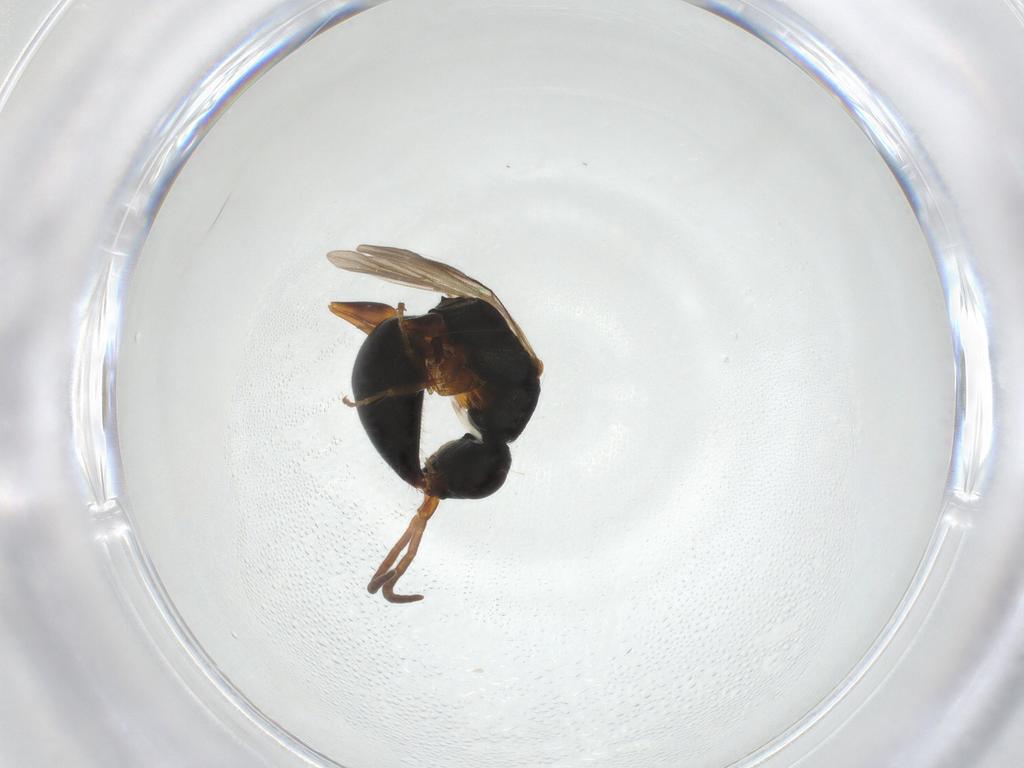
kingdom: Animalia
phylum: Arthropoda
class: Insecta
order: Hymenoptera
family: Bethylidae
